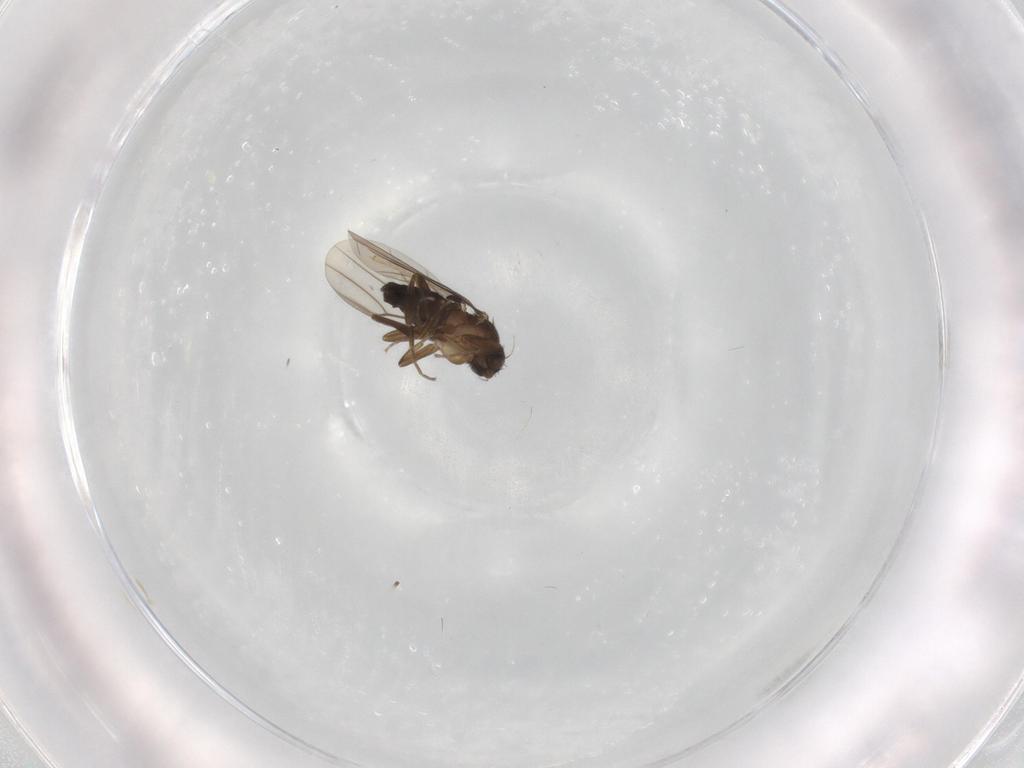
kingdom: Animalia
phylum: Arthropoda
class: Insecta
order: Diptera
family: Phoridae
